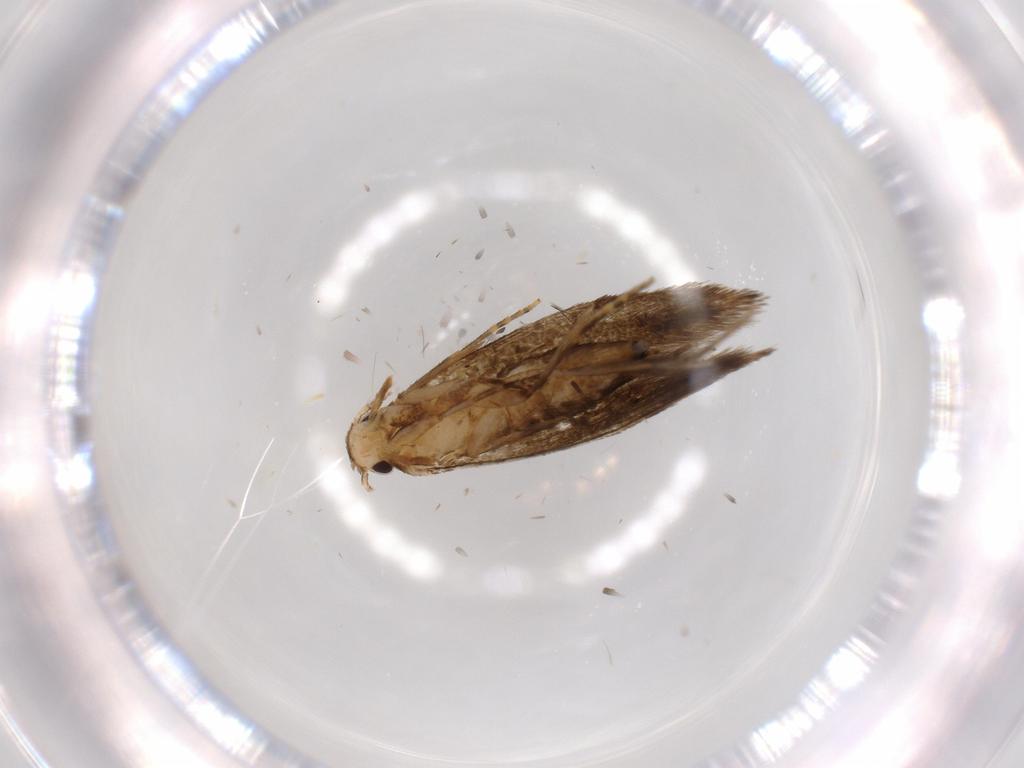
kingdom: Animalia
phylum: Arthropoda
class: Insecta
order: Lepidoptera
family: Tineidae
